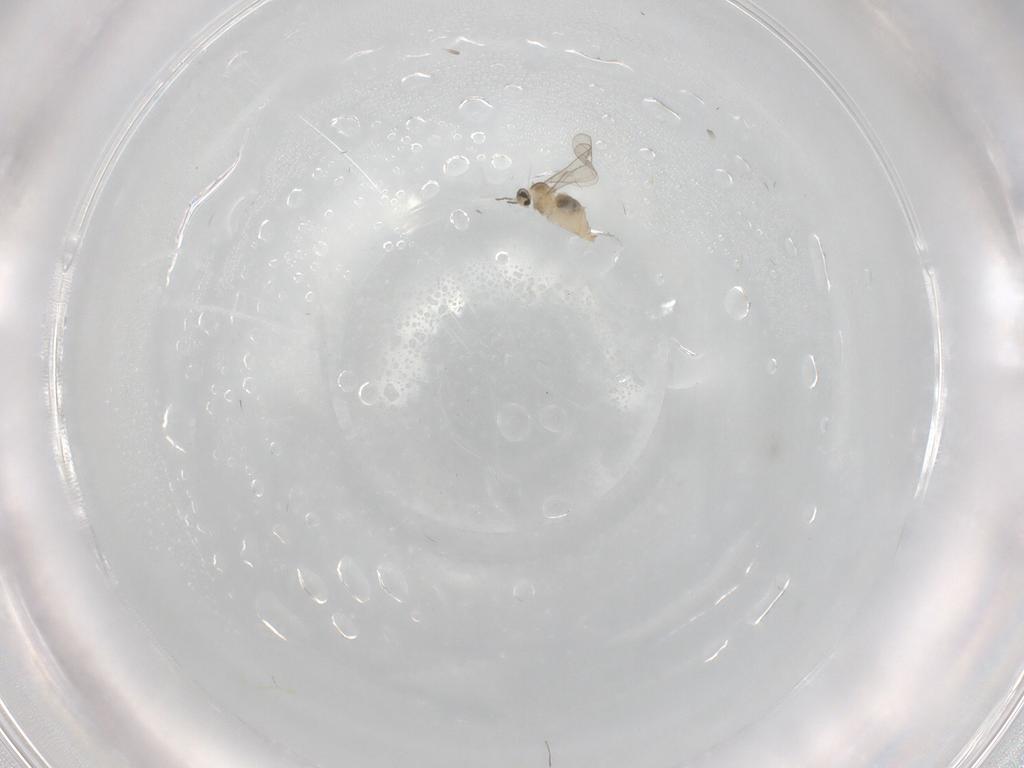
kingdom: Animalia
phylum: Arthropoda
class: Insecta
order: Diptera
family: Cecidomyiidae
